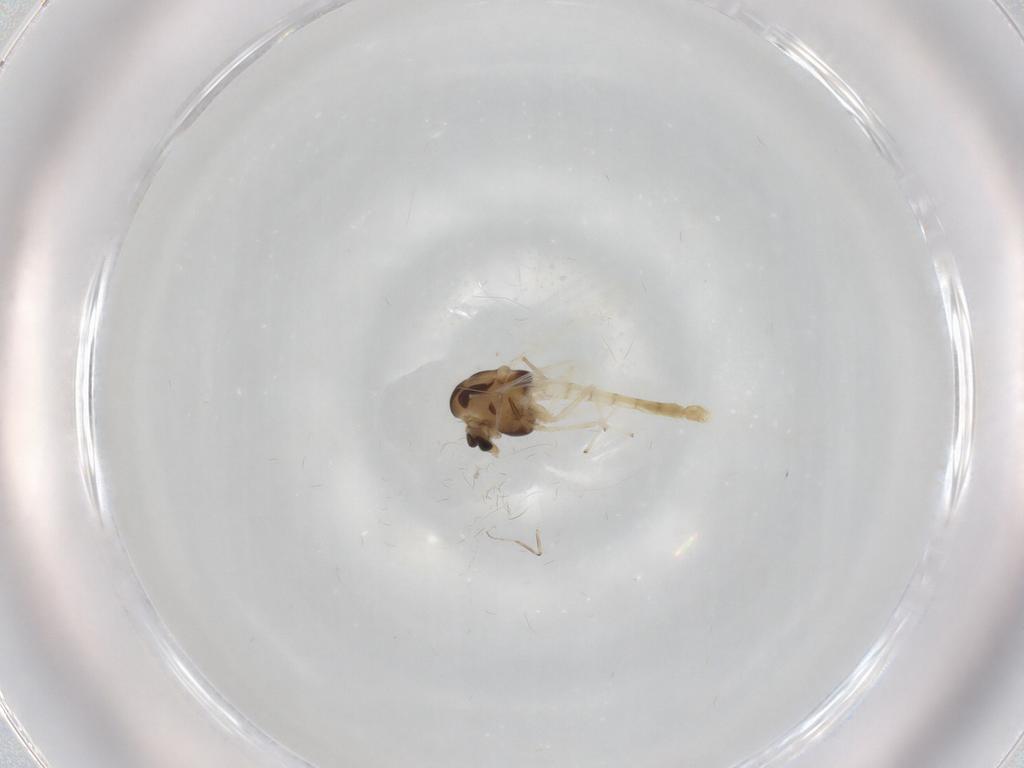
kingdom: Animalia
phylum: Arthropoda
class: Insecta
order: Diptera
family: Chironomidae
